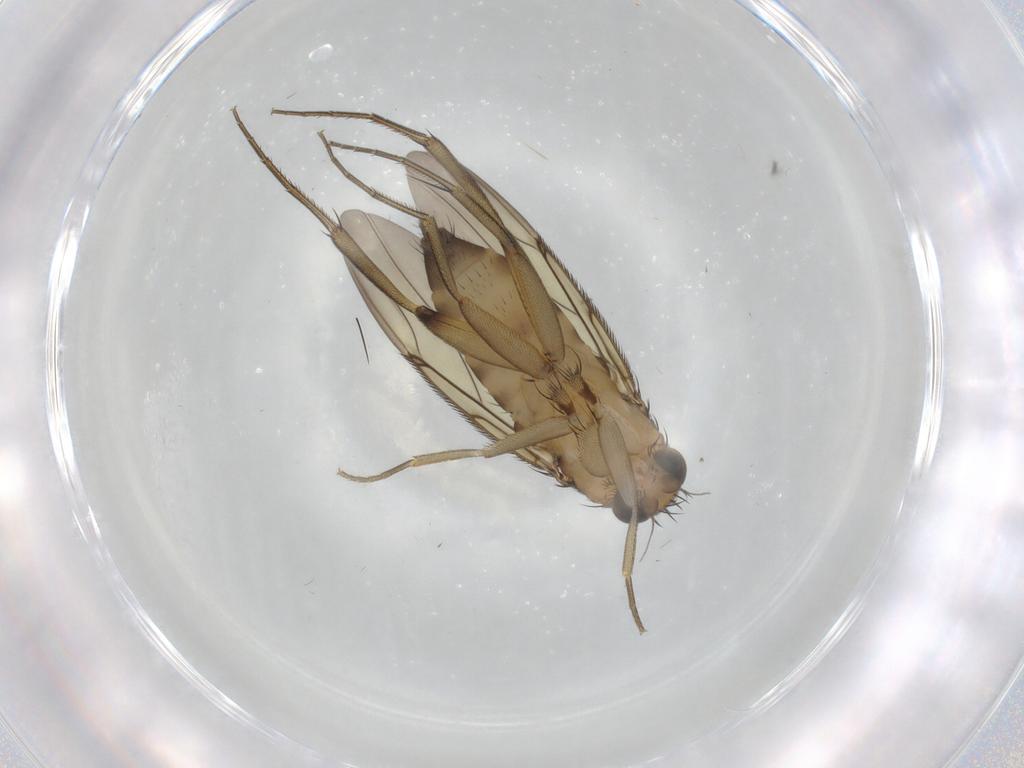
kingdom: Animalia
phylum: Arthropoda
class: Insecta
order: Diptera
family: Phoridae
